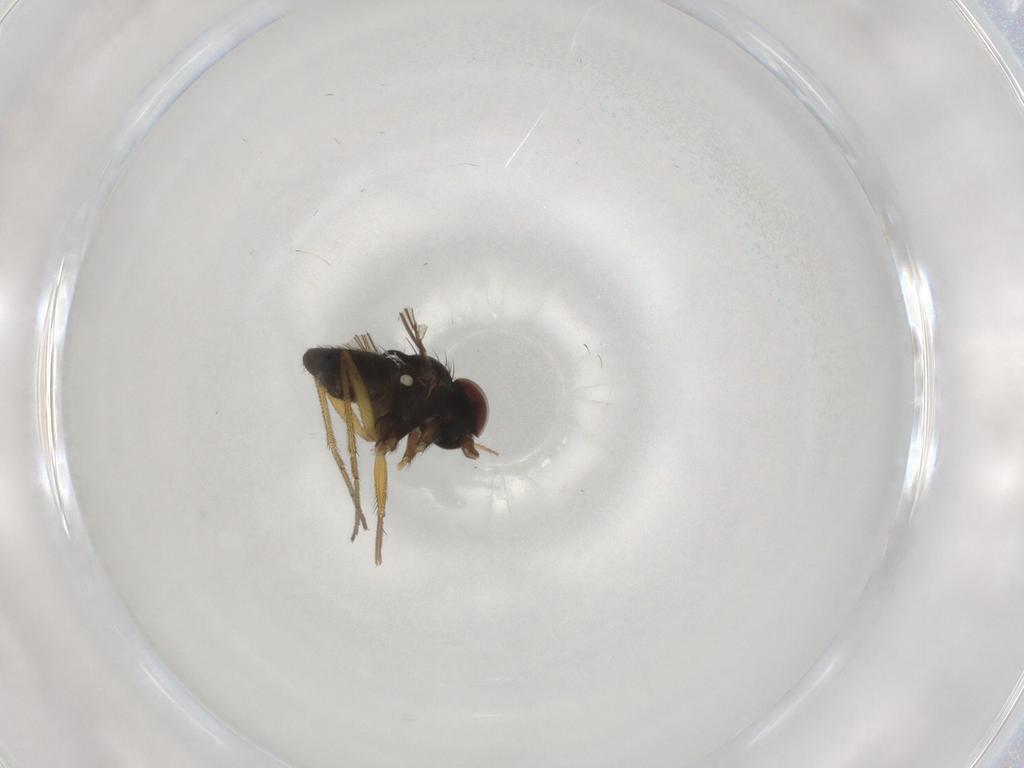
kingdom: Animalia
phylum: Arthropoda
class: Insecta
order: Diptera
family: Dolichopodidae
